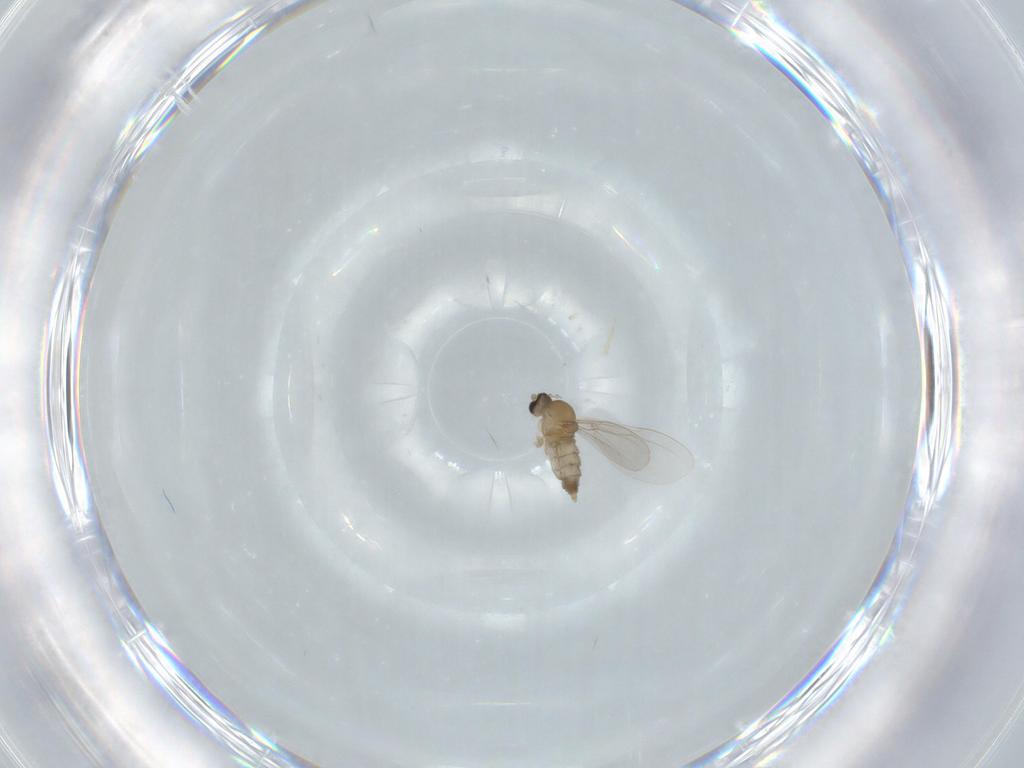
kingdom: Animalia
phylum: Arthropoda
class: Insecta
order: Diptera
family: Cecidomyiidae
